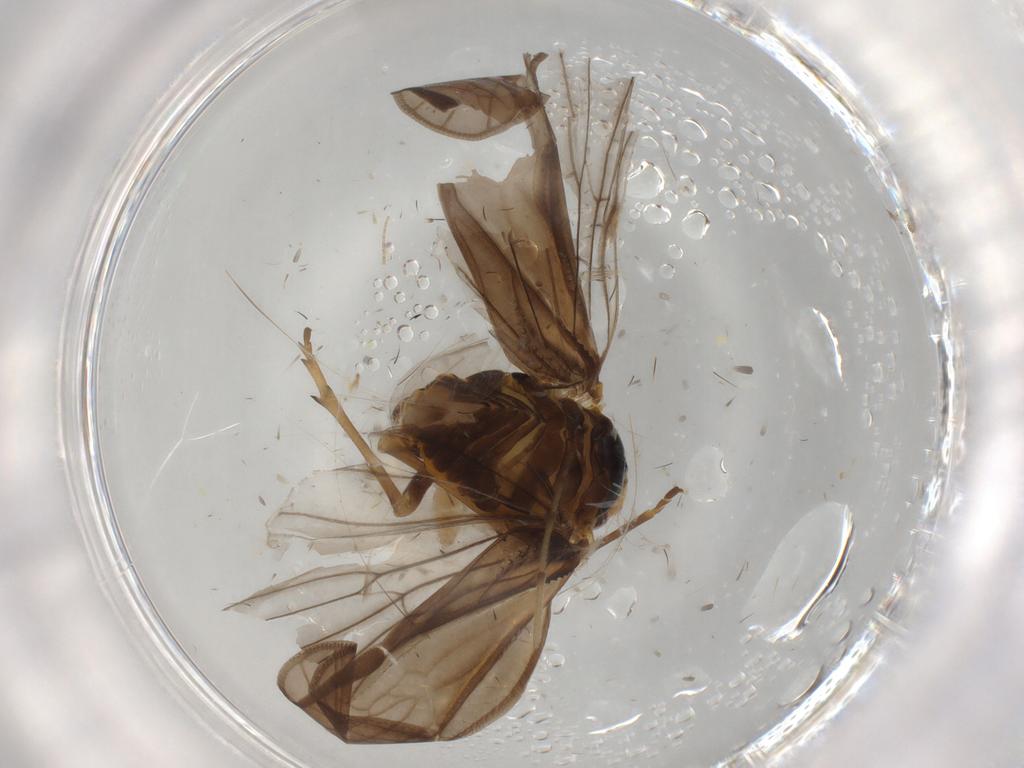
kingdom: Animalia
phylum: Arthropoda
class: Insecta
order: Hemiptera
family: Meenoplidae
